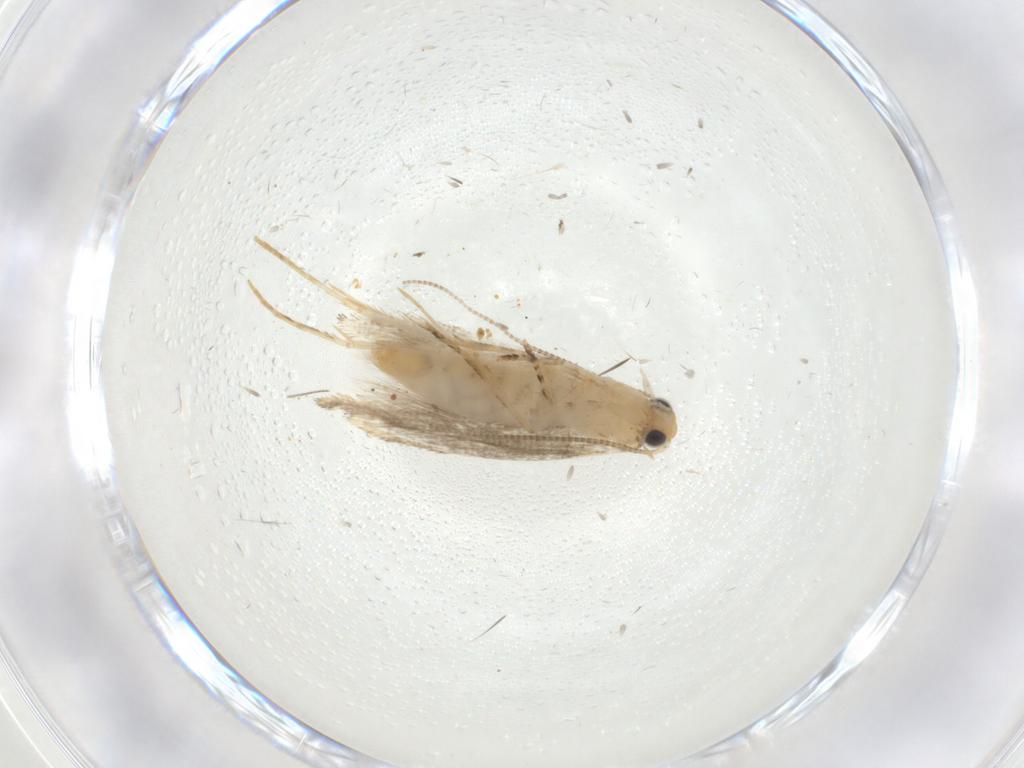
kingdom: Animalia
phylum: Arthropoda
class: Insecta
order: Lepidoptera
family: Tineidae
